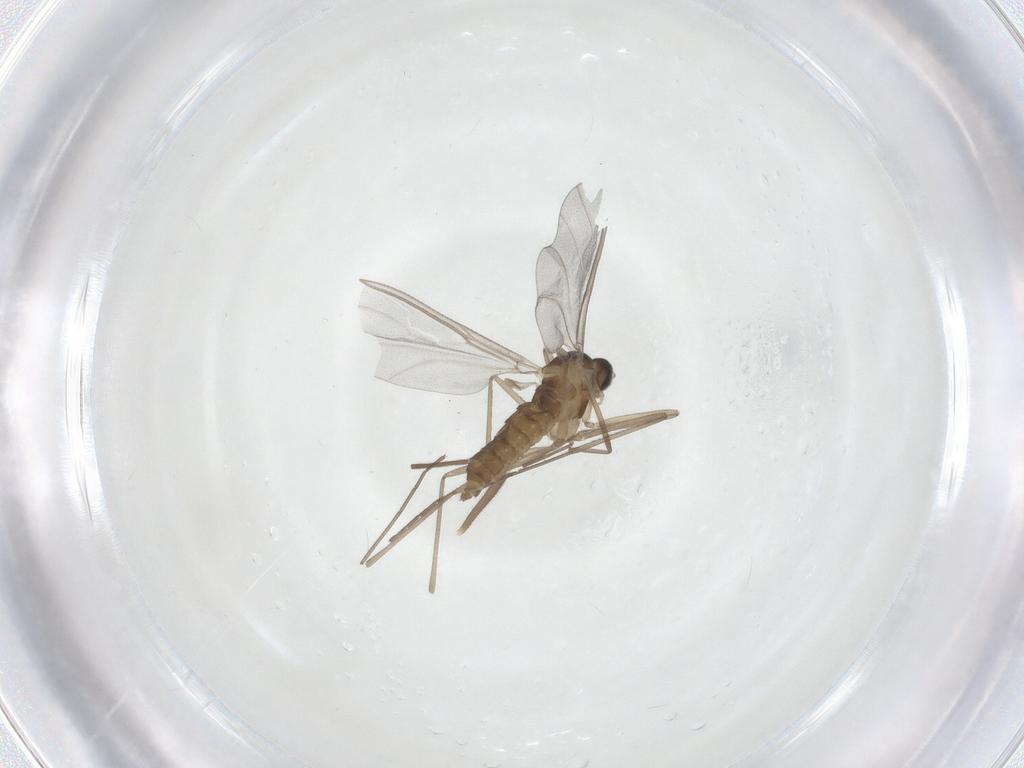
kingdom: Animalia
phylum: Arthropoda
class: Insecta
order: Diptera
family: Chironomidae
